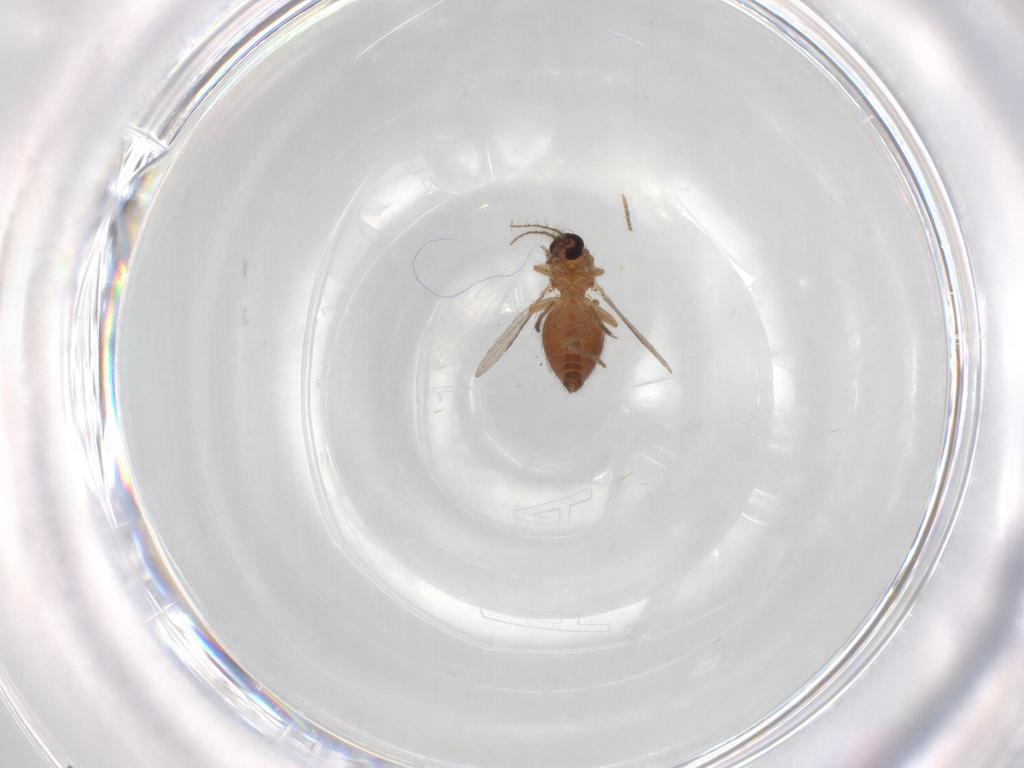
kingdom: Animalia
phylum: Arthropoda
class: Insecta
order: Diptera
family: Ceratopogonidae
